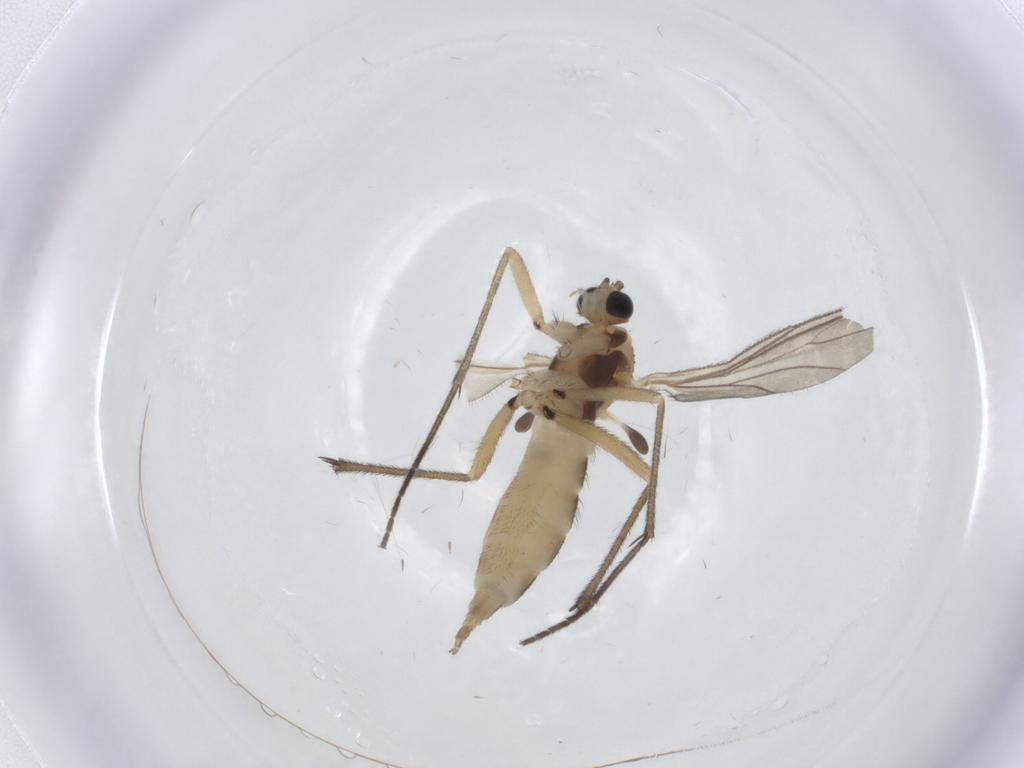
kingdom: Animalia
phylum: Arthropoda
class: Insecta
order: Diptera
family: Sciaridae
